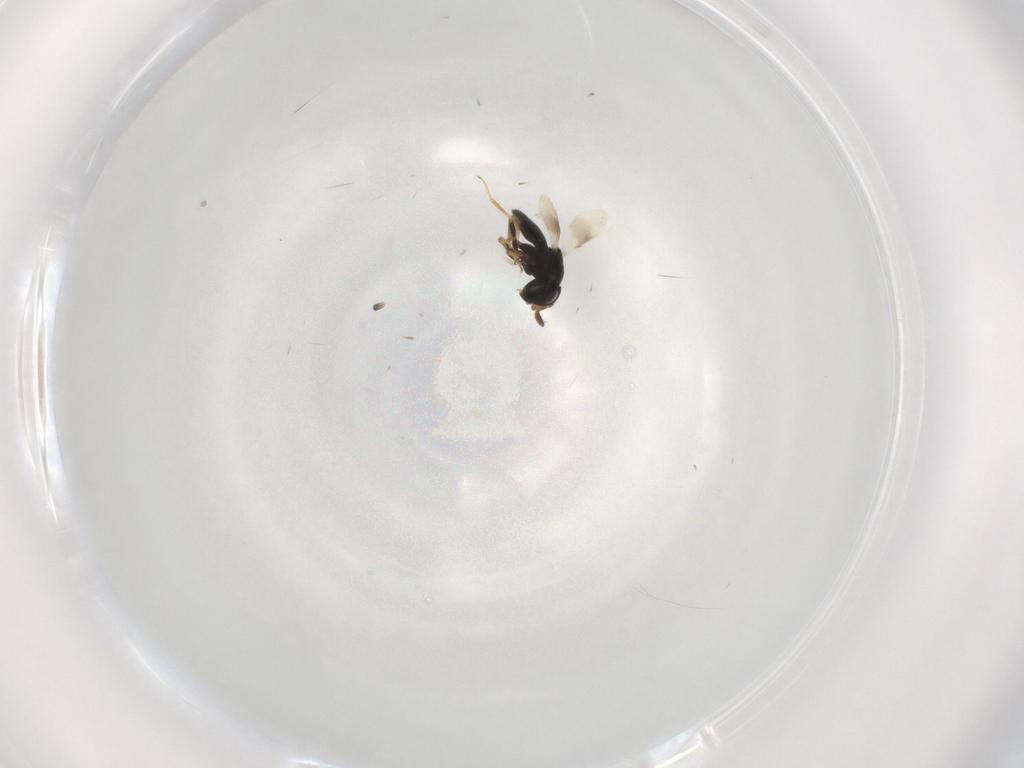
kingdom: Animalia
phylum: Arthropoda
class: Insecta
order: Hymenoptera
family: Scelionidae
